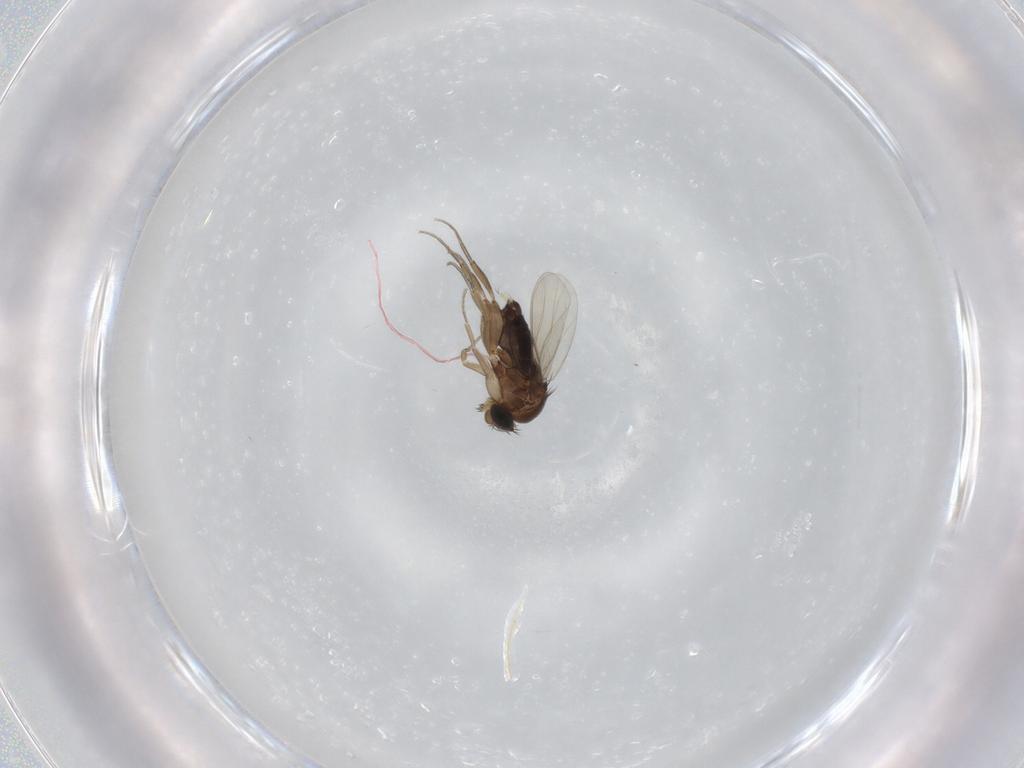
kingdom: Animalia
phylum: Arthropoda
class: Insecta
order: Diptera
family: Phoridae
